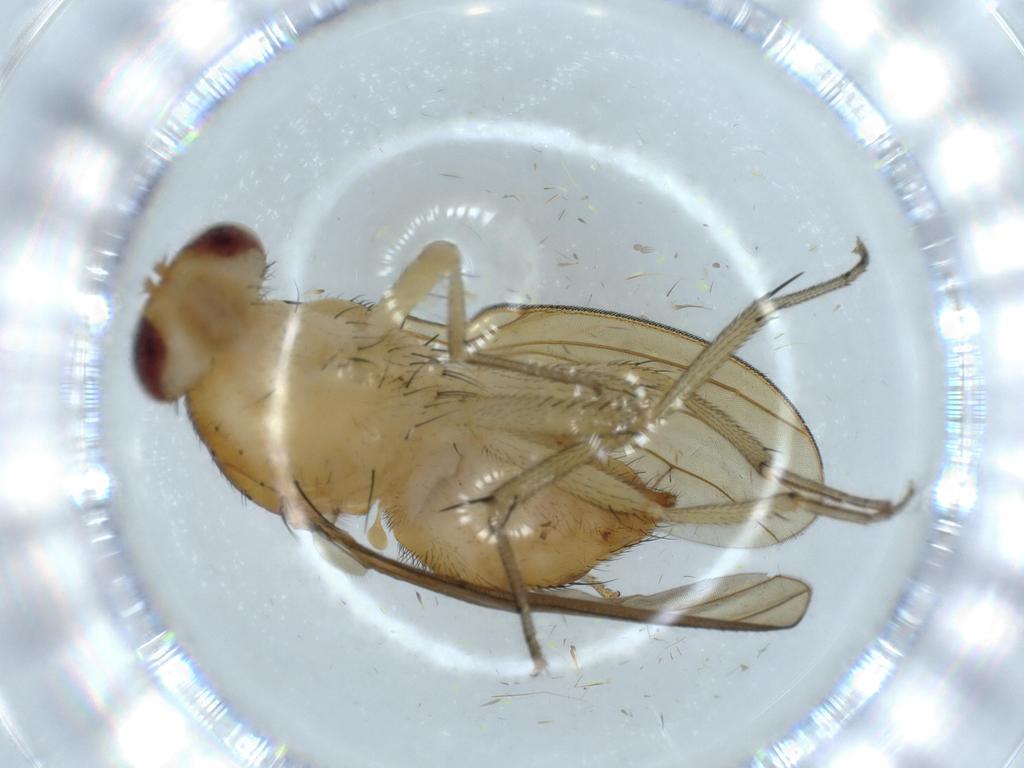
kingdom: Animalia
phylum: Arthropoda
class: Insecta
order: Diptera
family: Xylomyidae
